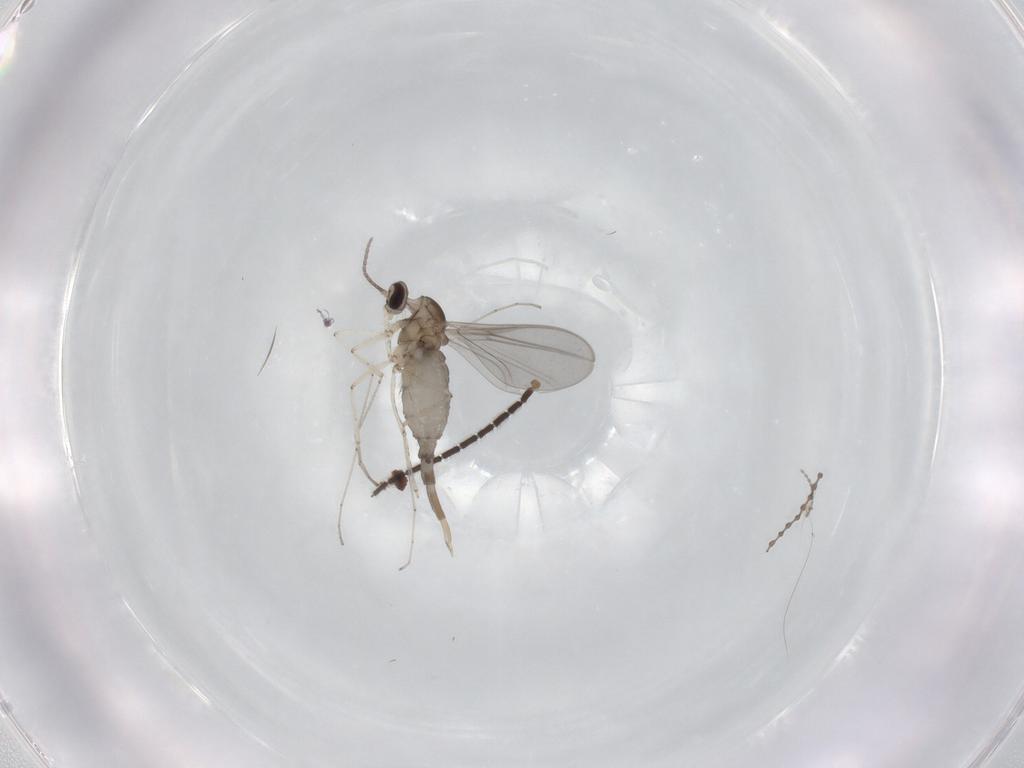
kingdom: Animalia
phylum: Arthropoda
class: Insecta
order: Diptera
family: Cecidomyiidae
